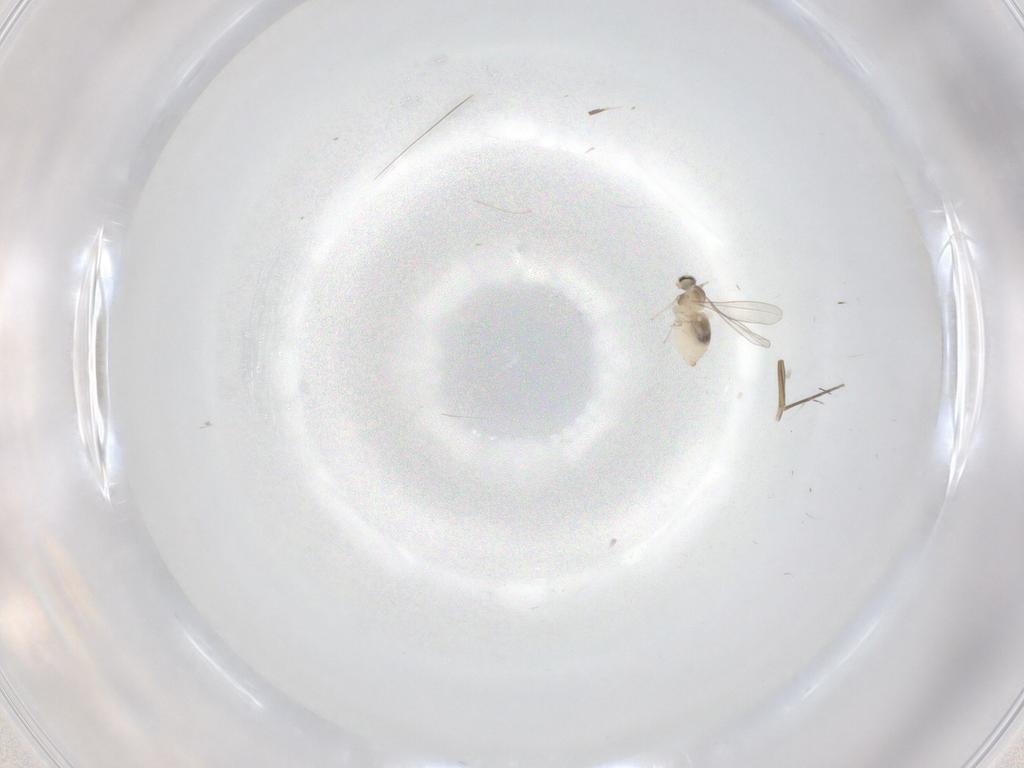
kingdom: Animalia
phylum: Arthropoda
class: Insecta
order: Diptera
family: Cecidomyiidae
